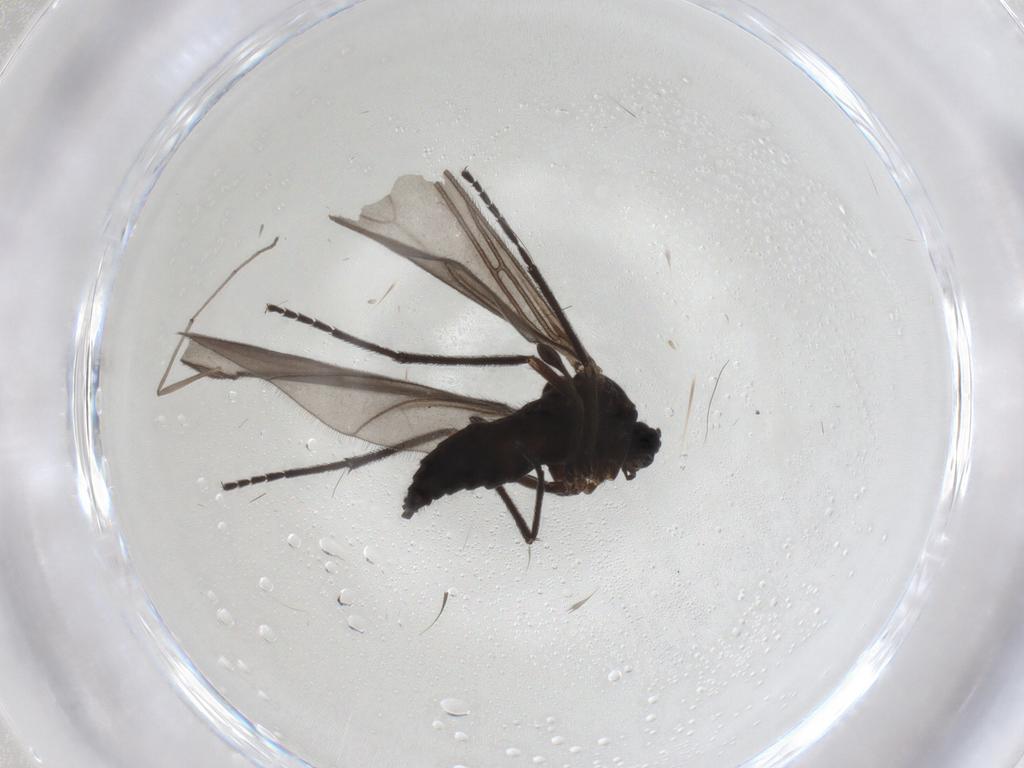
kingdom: Animalia
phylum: Arthropoda
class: Insecta
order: Diptera
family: Sciaridae
